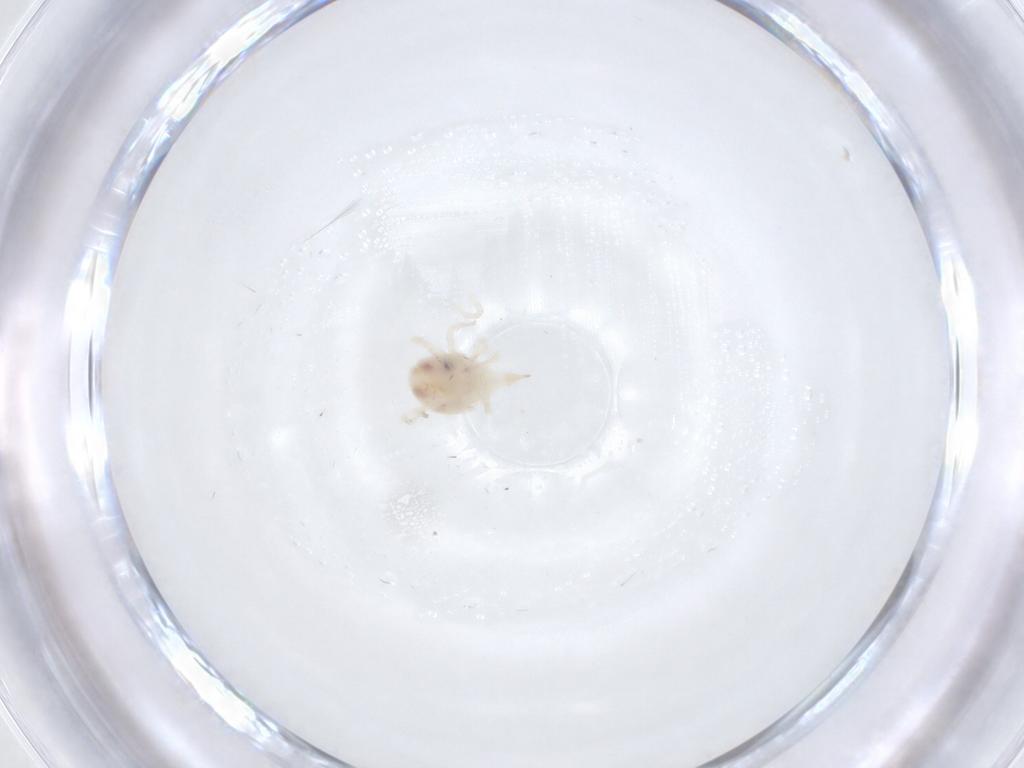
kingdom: Animalia
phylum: Arthropoda
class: Arachnida
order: Trombidiformes
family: Bdellidae
